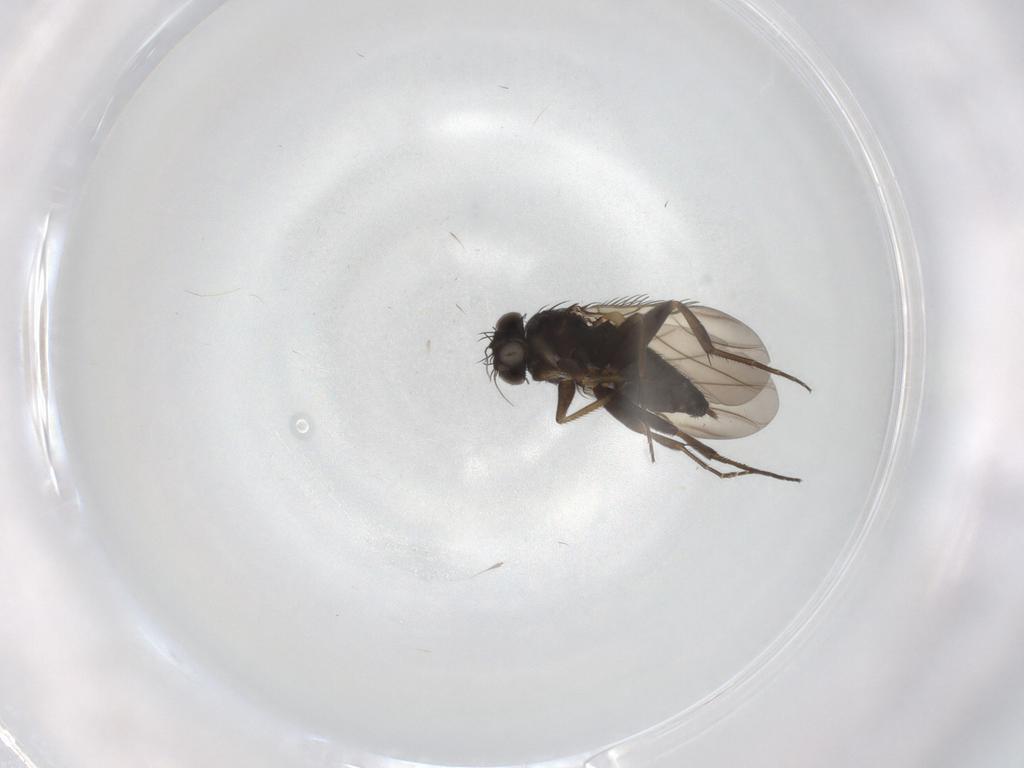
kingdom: Animalia
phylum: Arthropoda
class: Insecta
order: Diptera
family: Phoridae
